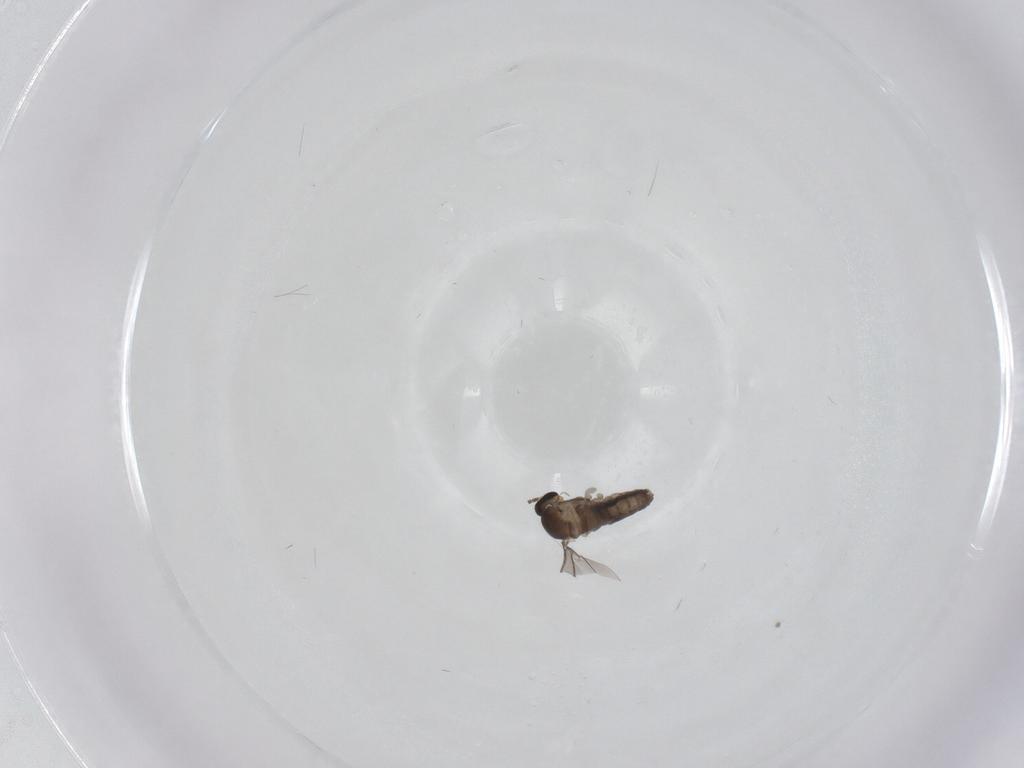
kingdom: Animalia
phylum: Arthropoda
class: Insecta
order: Diptera
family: Cecidomyiidae
